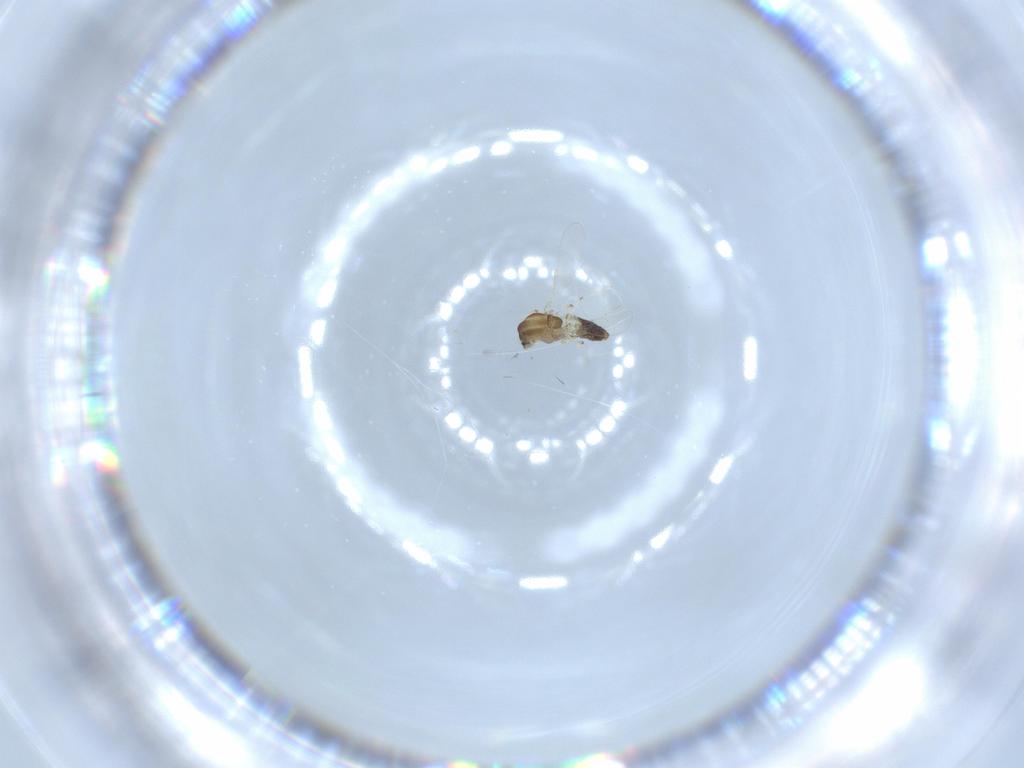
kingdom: Animalia
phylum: Arthropoda
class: Insecta
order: Diptera
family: Chironomidae
